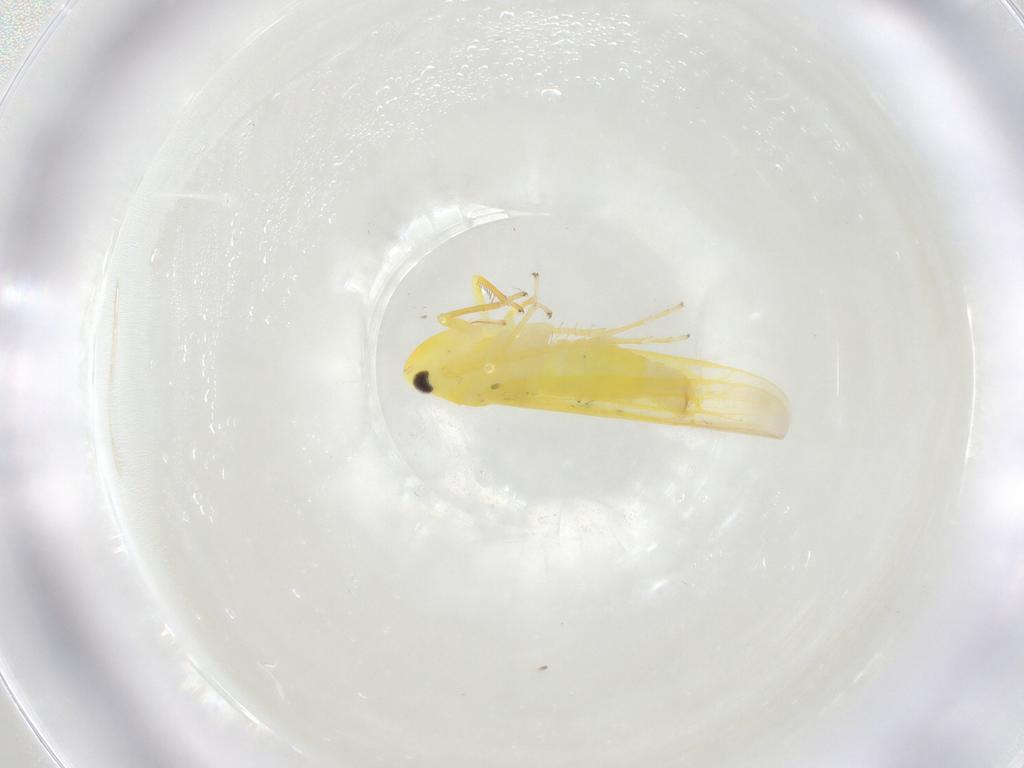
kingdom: Animalia
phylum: Arthropoda
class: Insecta
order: Hemiptera
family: Cicadellidae
